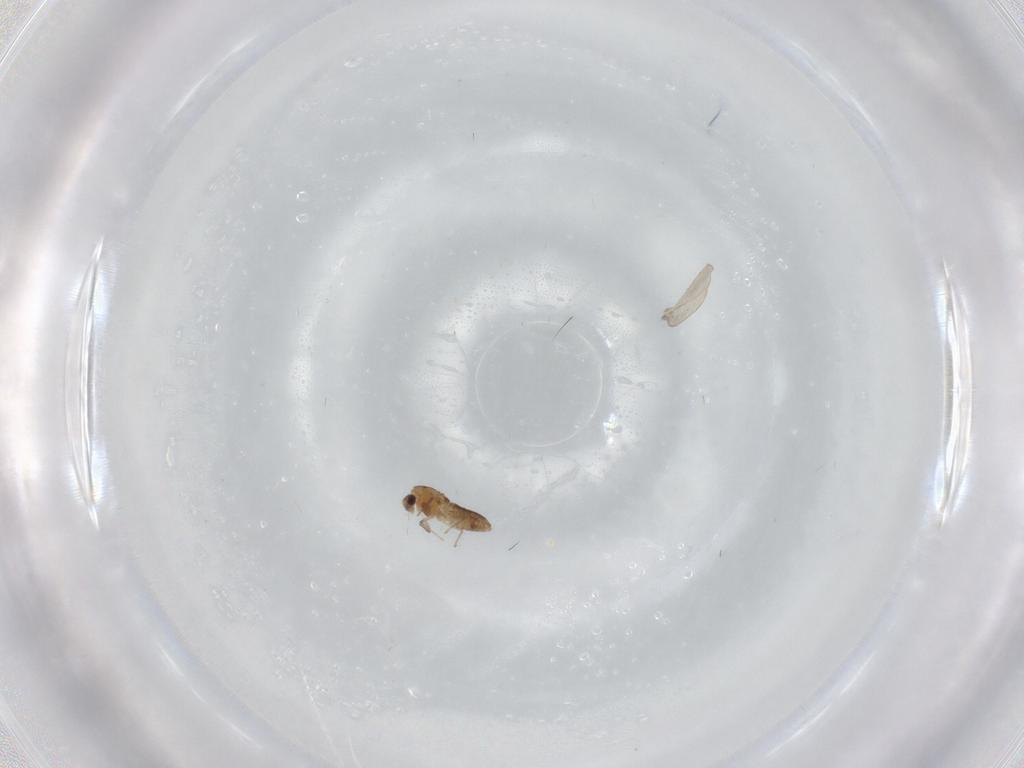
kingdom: Animalia
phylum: Arthropoda
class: Insecta
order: Diptera
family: Chironomidae
